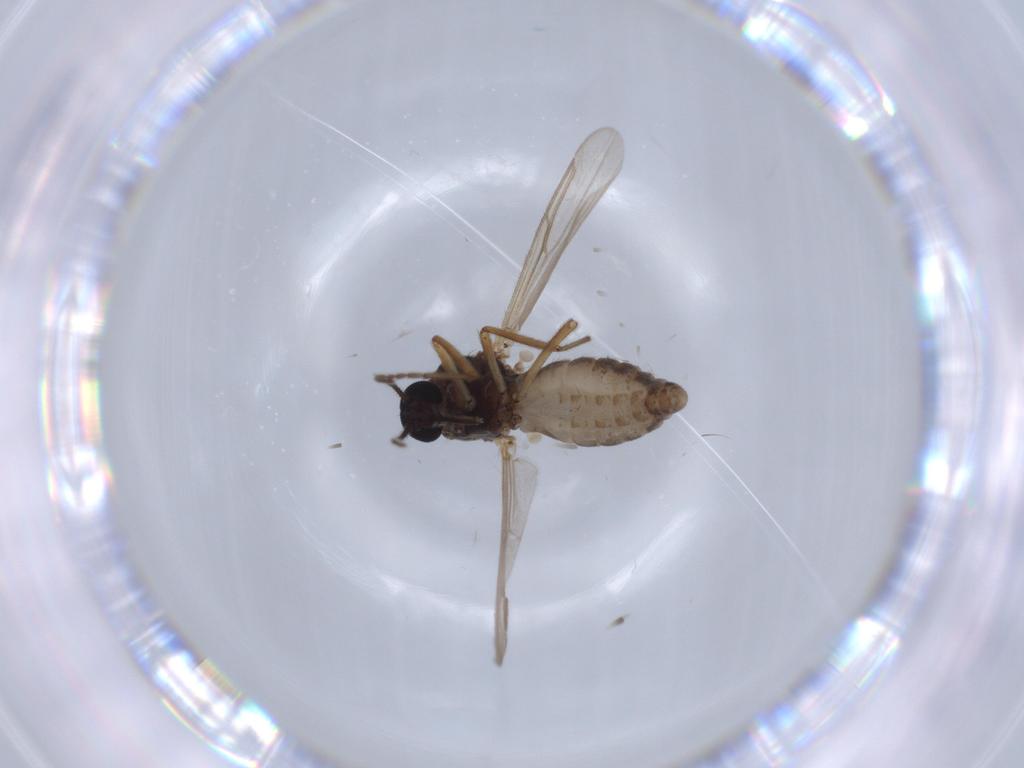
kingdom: Animalia
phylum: Arthropoda
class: Insecta
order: Diptera
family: Ceratopogonidae
